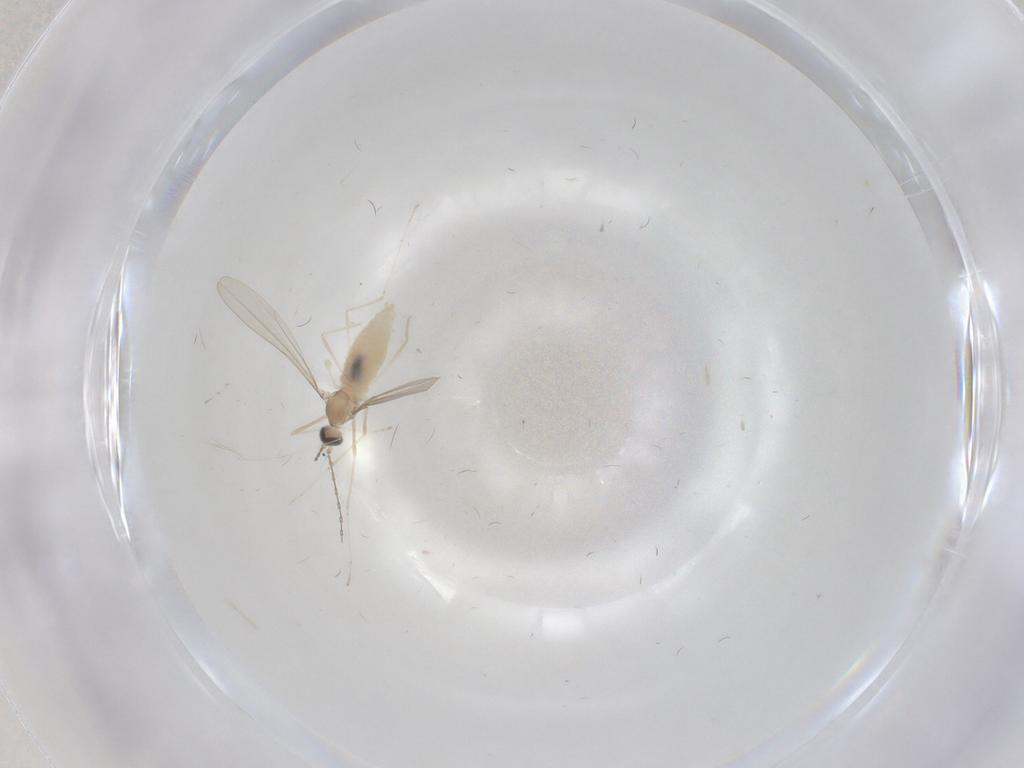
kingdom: Animalia
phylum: Arthropoda
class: Insecta
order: Diptera
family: Cecidomyiidae
